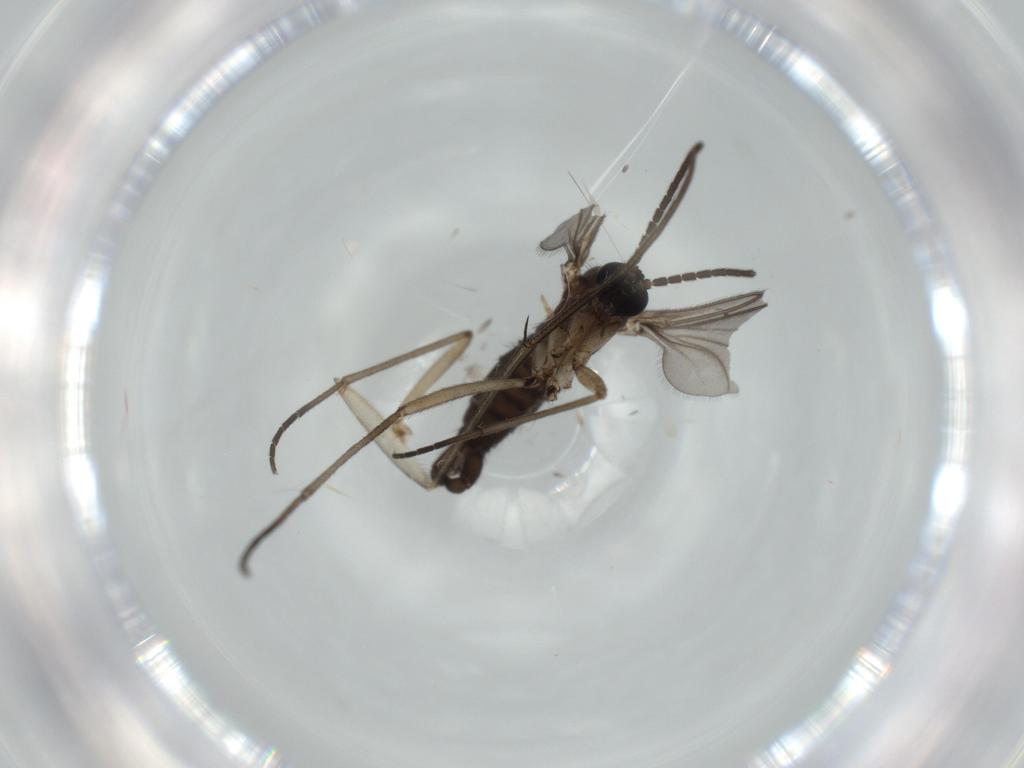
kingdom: Animalia
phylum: Arthropoda
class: Insecta
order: Diptera
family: Sciaridae
